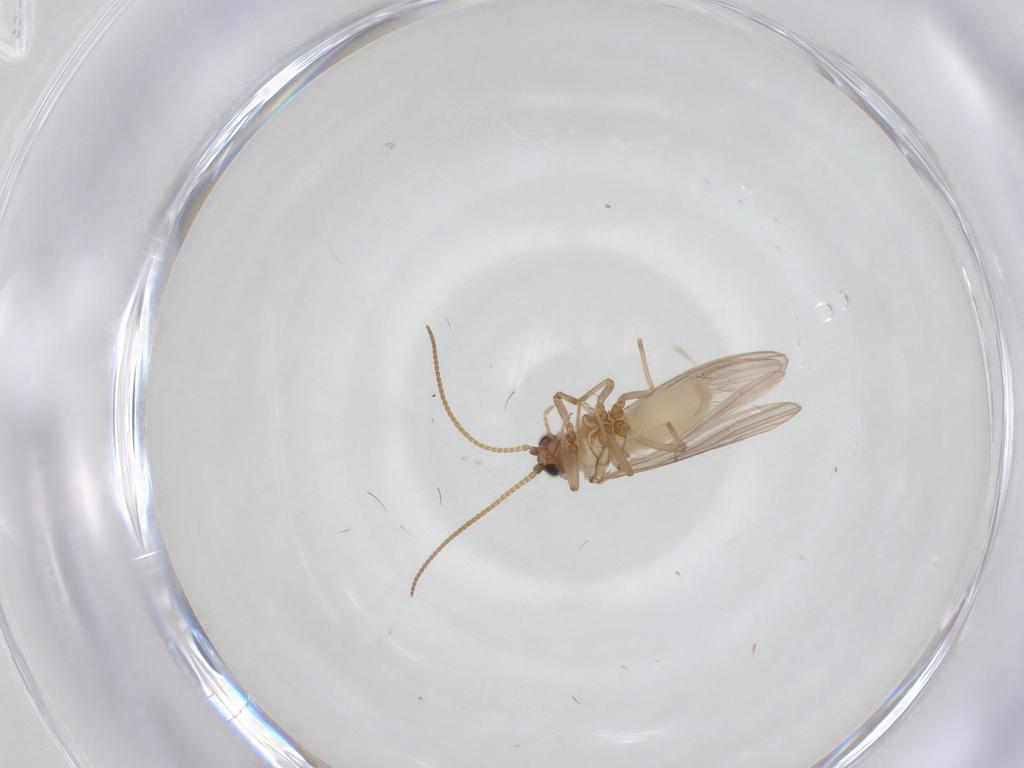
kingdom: Animalia
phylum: Arthropoda
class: Insecta
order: Neuroptera
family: Coniopterygidae
